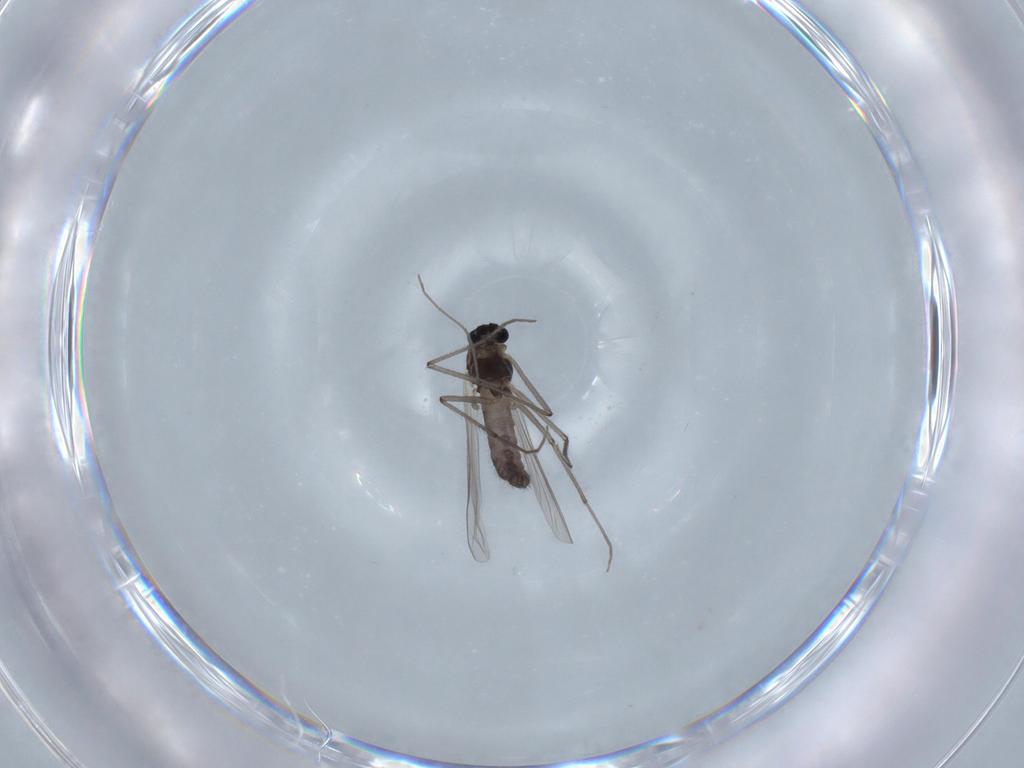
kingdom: Animalia
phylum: Arthropoda
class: Insecta
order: Diptera
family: Chironomidae
